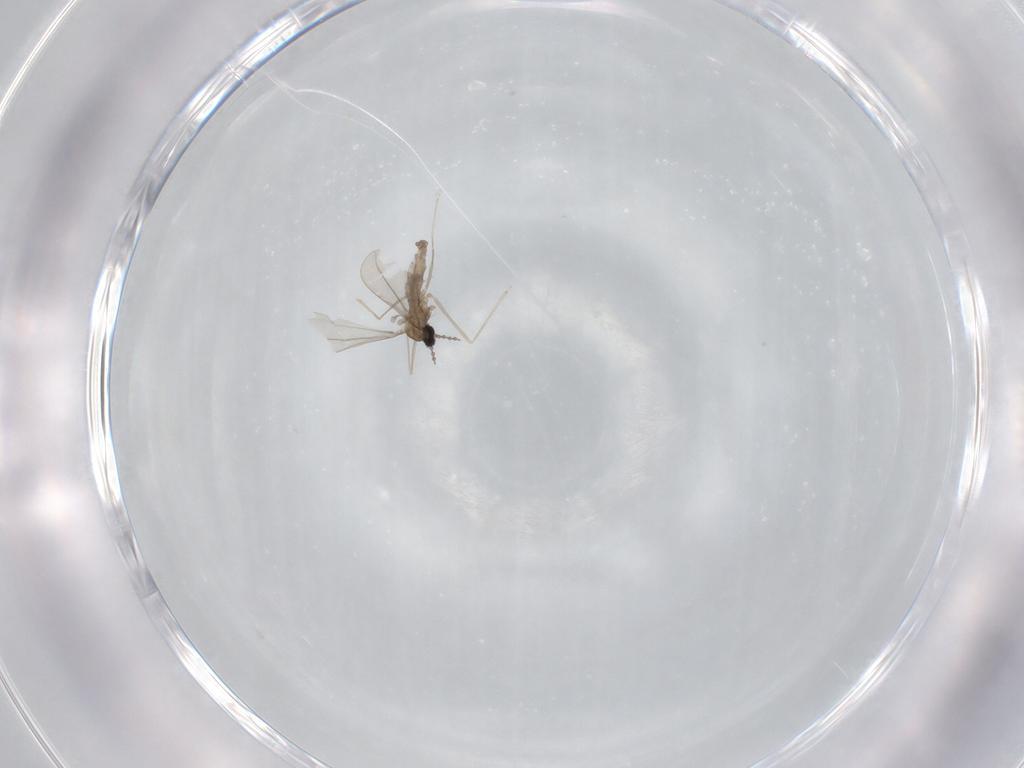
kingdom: Animalia
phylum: Arthropoda
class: Insecta
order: Diptera
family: Cecidomyiidae
